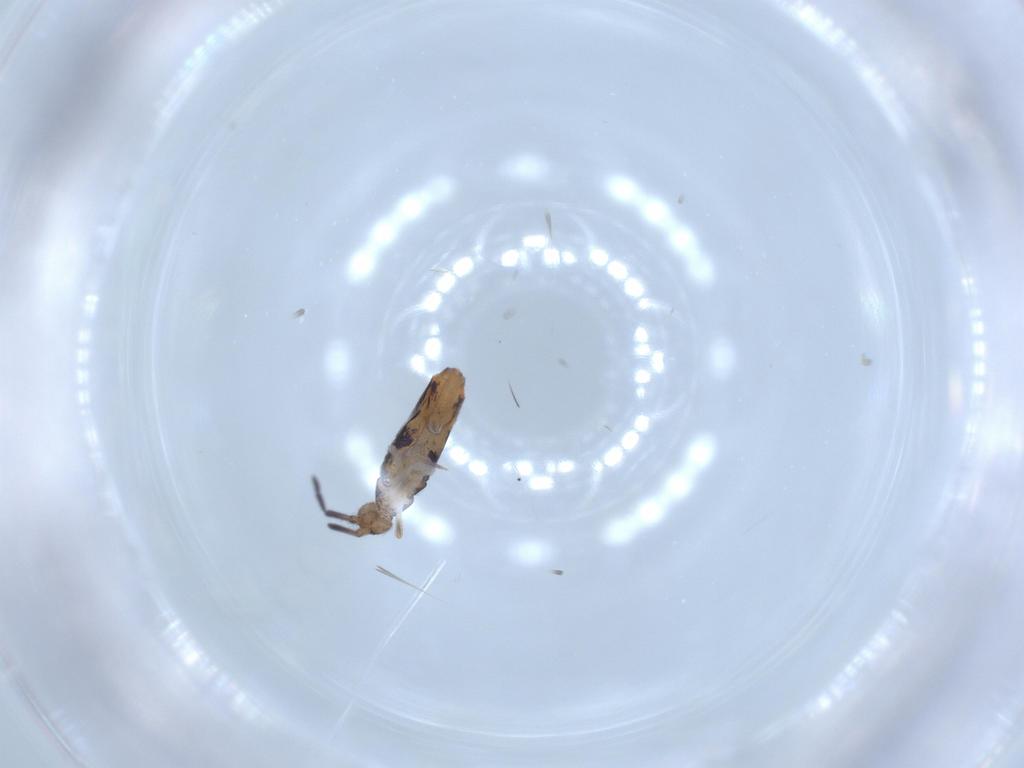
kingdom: Animalia
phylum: Arthropoda
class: Collembola
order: Entomobryomorpha
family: Entomobryidae
